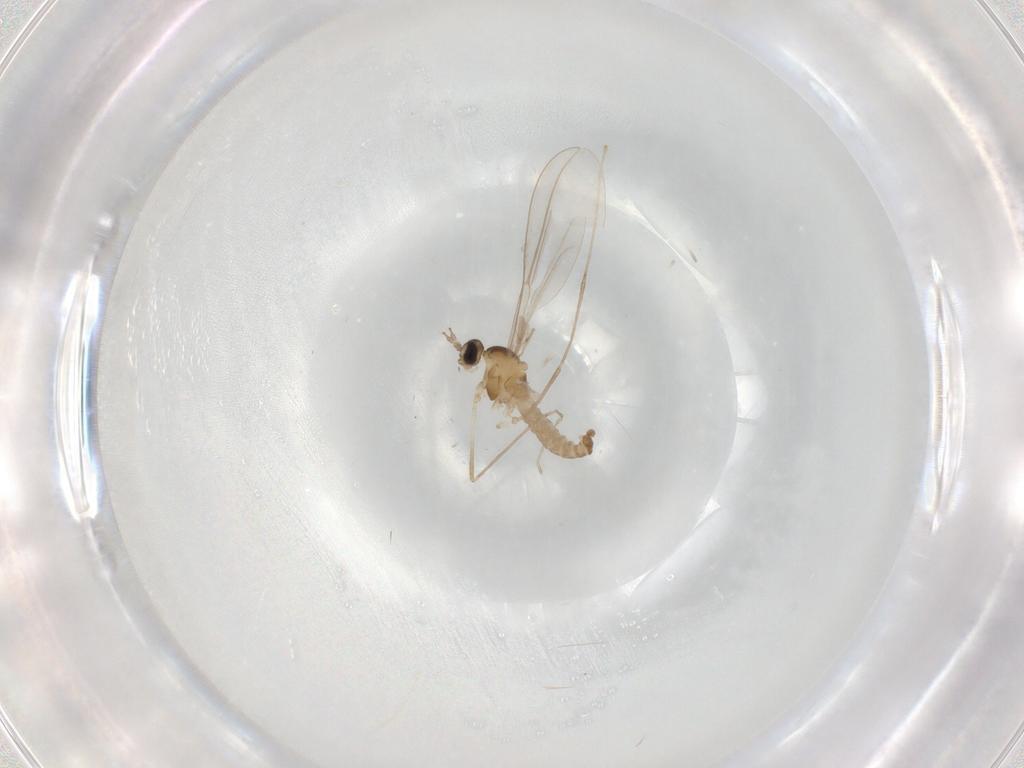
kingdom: Animalia
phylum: Arthropoda
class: Insecta
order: Diptera
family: Cecidomyiidae
